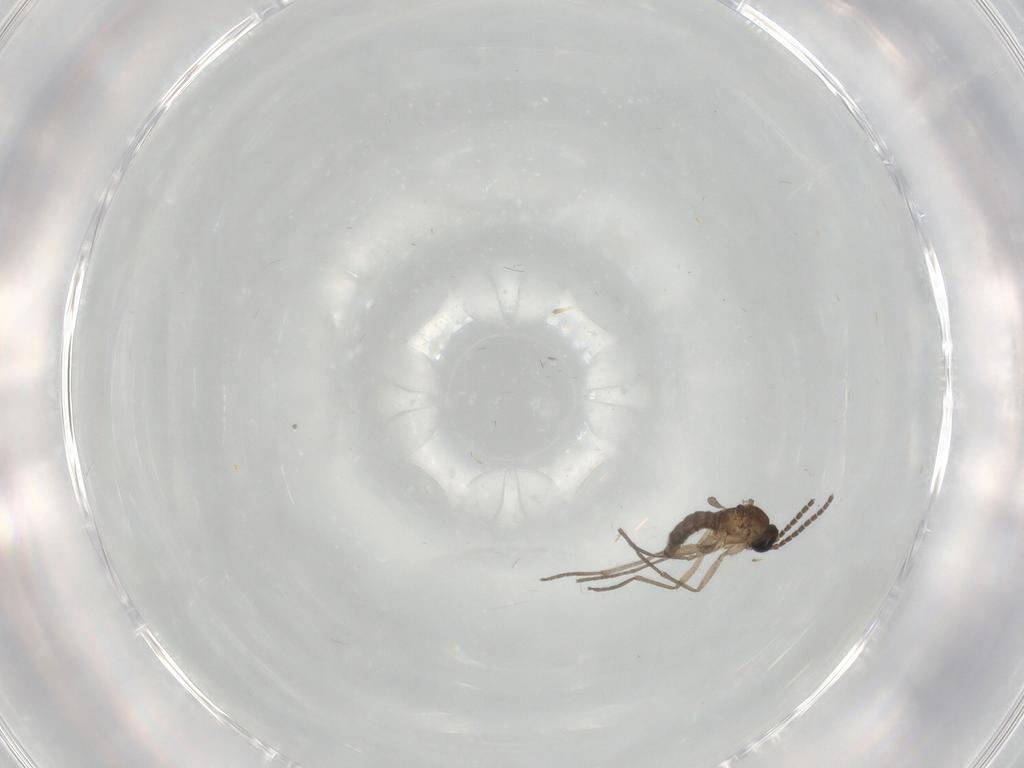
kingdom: Animalia
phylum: Arthropoda
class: Insecta
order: Diptera
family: Sciaridae
